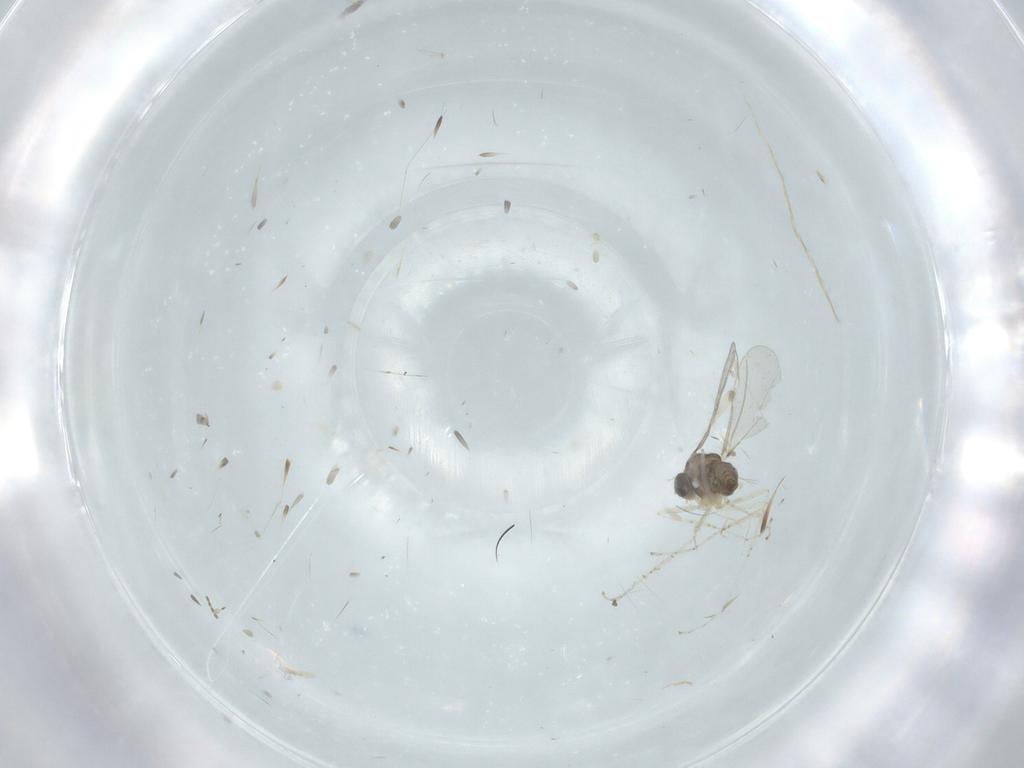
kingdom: Animalia
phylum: Arthropoda
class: Insecta
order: Diptera
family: Cecidomyiidae
